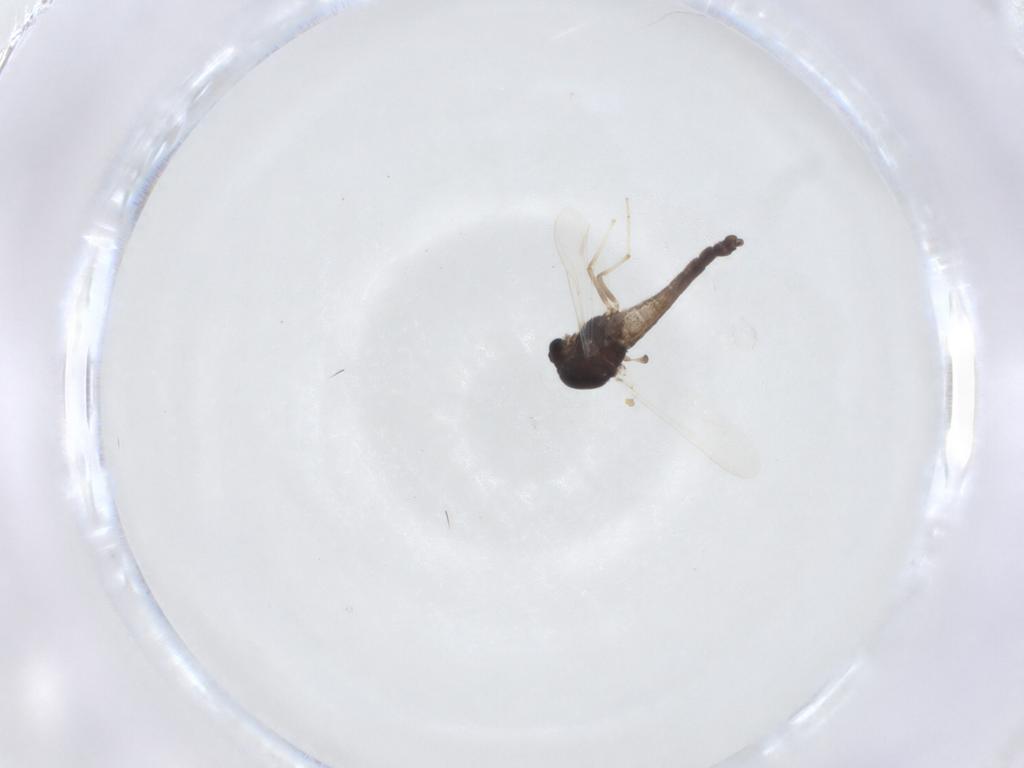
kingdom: Animalia
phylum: Arthropoda
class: Insecta
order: Diptera
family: Chironomidae
